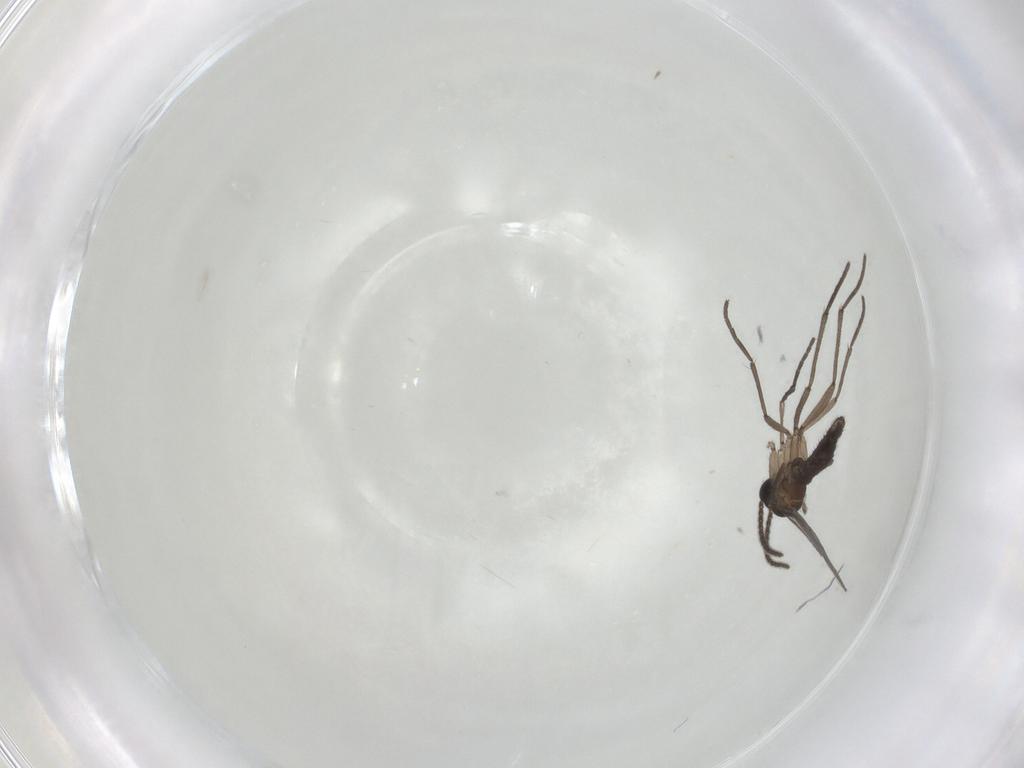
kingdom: Animalia
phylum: Arthropoda
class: Insecta
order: Diptera
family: Sciaridae
